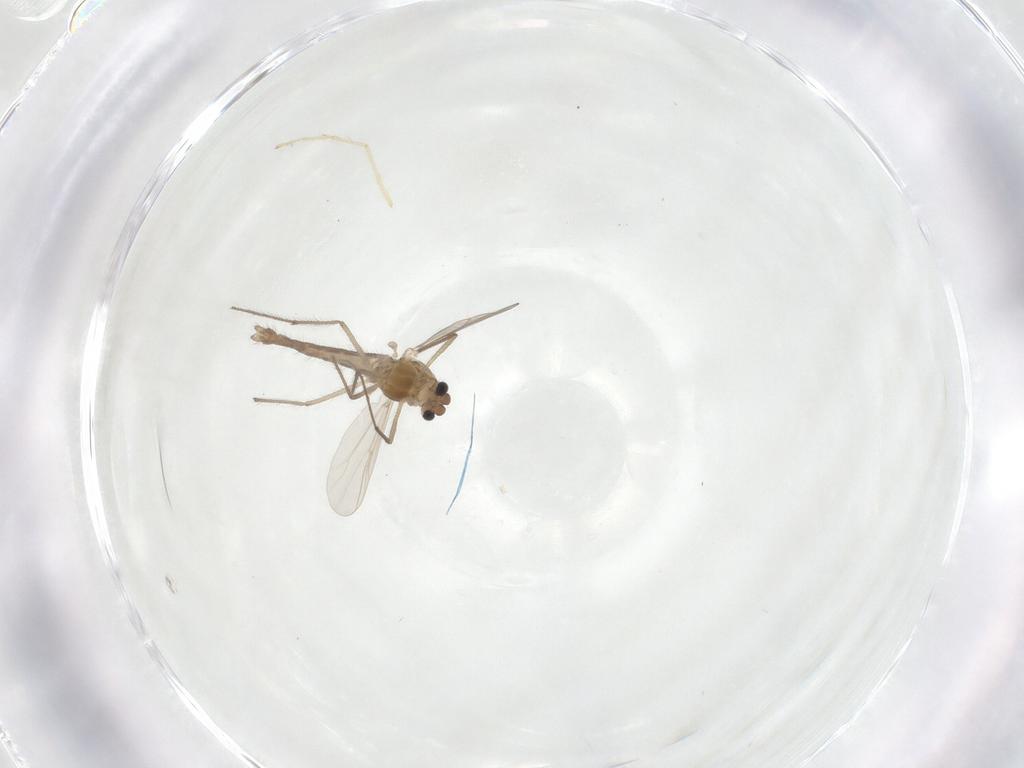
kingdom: Animalia
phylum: Arthropoda
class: Insecta
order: Diptera
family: Chironomidae
